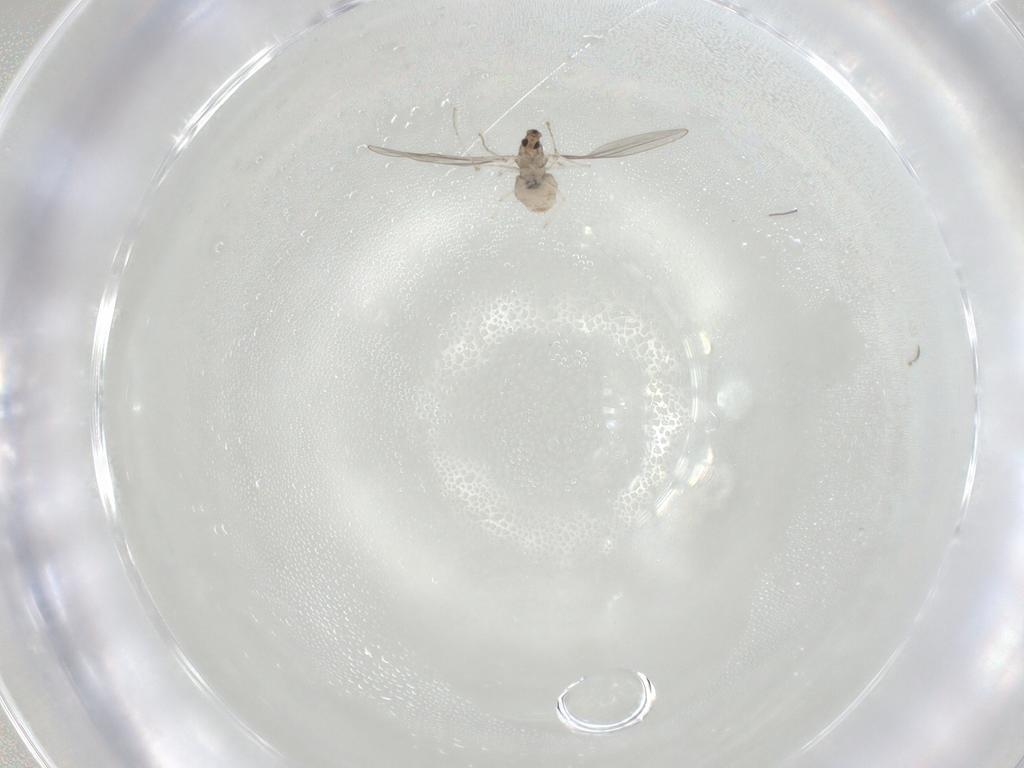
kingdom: Animalia
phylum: Arthropoda
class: Insecta
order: Diptera
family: Cecidomyiidae
